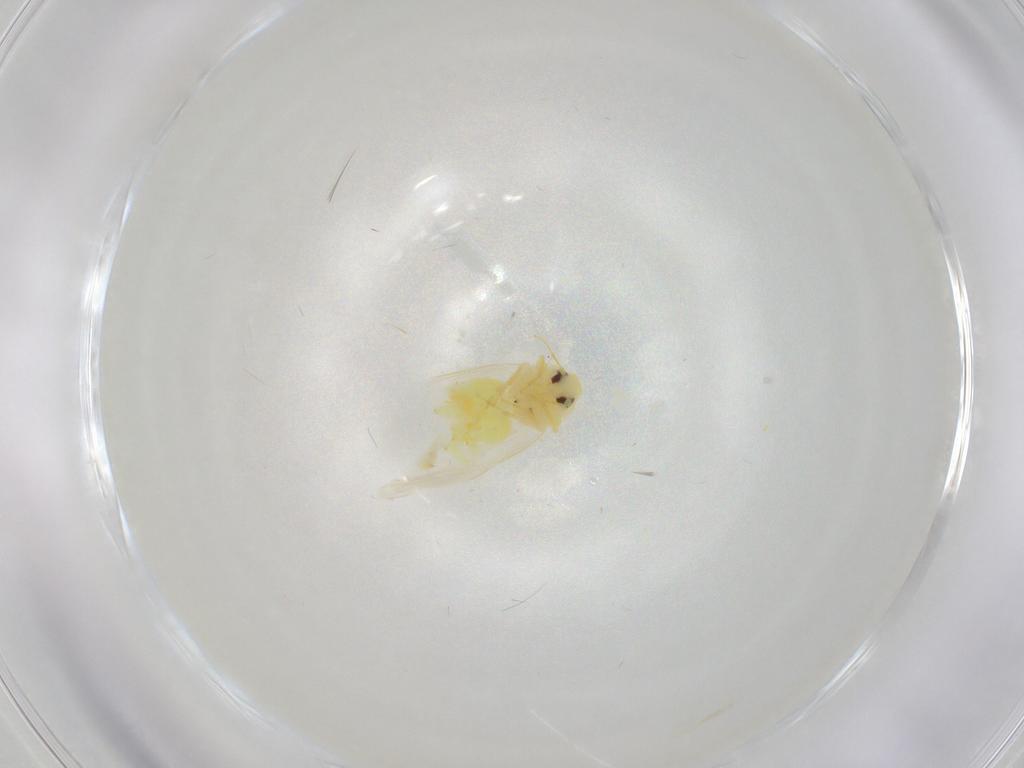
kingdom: Animalia
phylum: Arthropoda
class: Insecta
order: Hemiptera
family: Aleyrodidae
